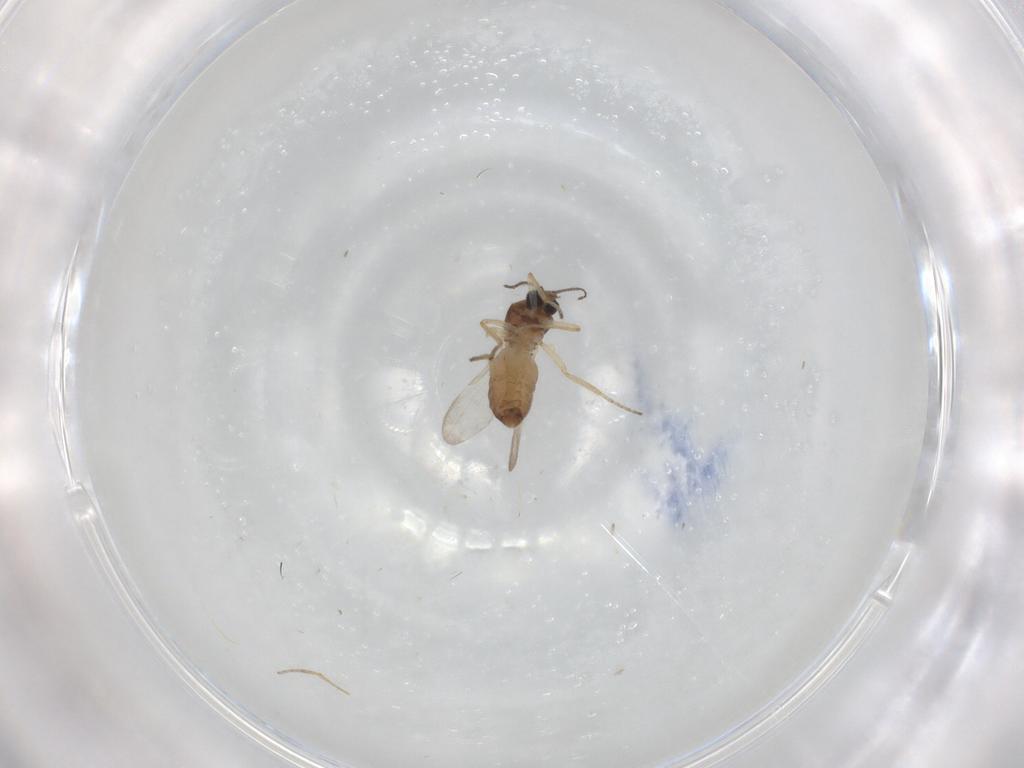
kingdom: Animalia
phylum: Arthropoda
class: Insecta
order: Diptera
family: Ceratopogonidae
